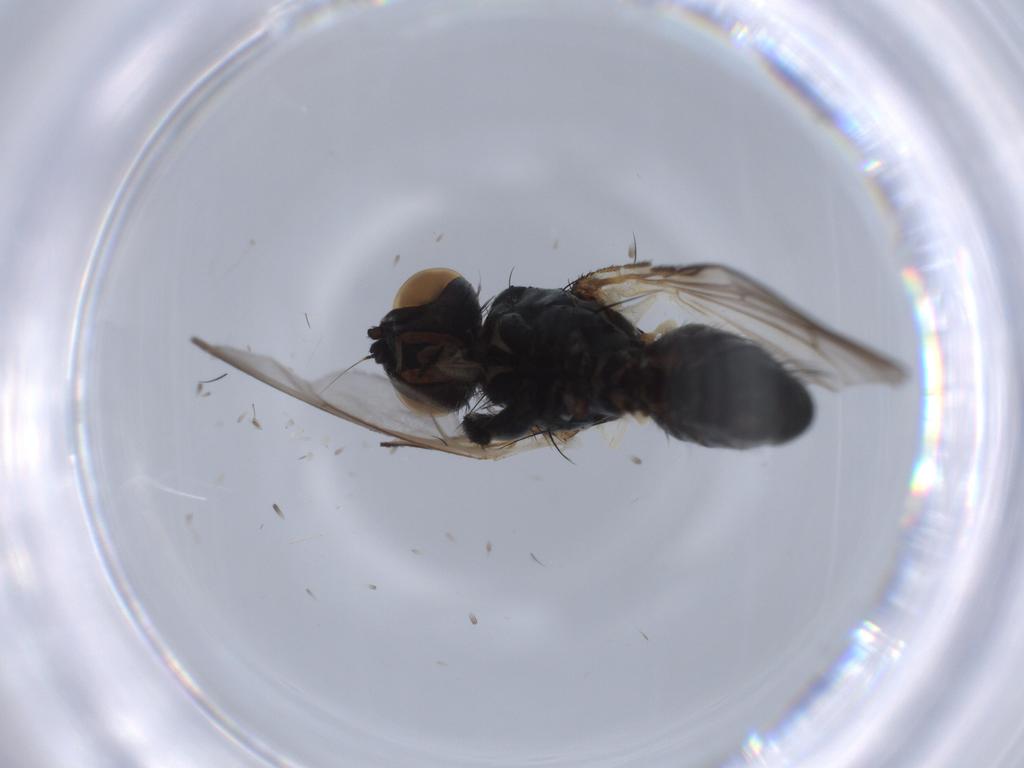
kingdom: Animalia
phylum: Arthropoda
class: Insecta
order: Diptera
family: Muscidae
